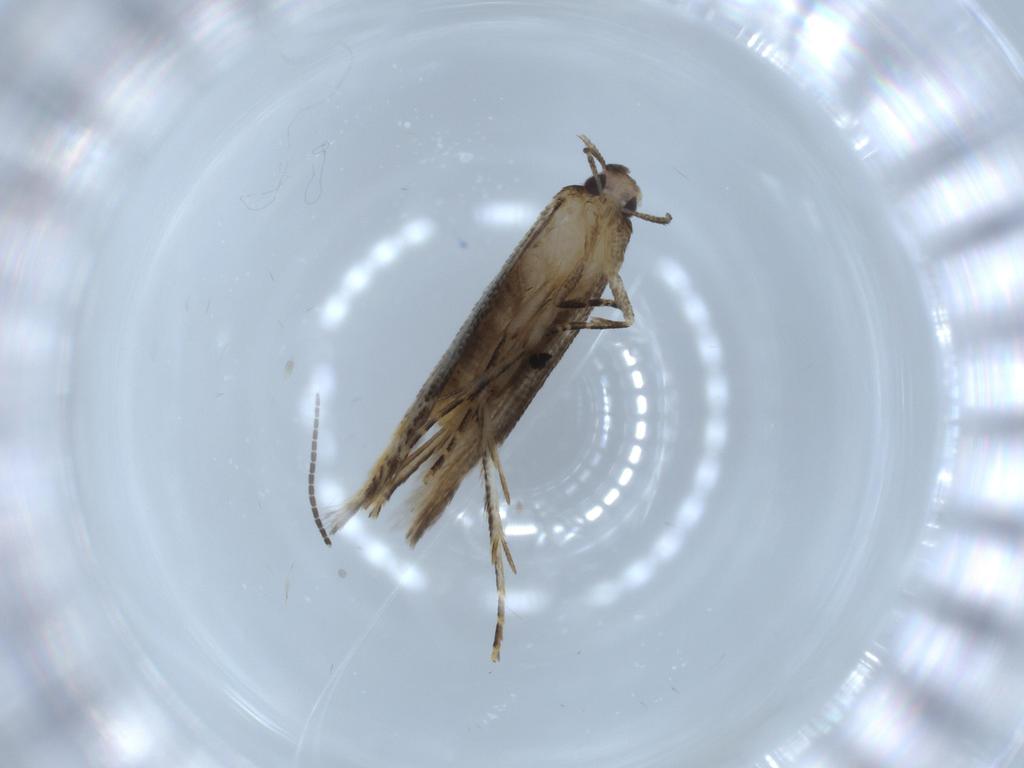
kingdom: Animalia
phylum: Arthropoda
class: Insecta
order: Lepidoptera
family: Stathmopodidae
